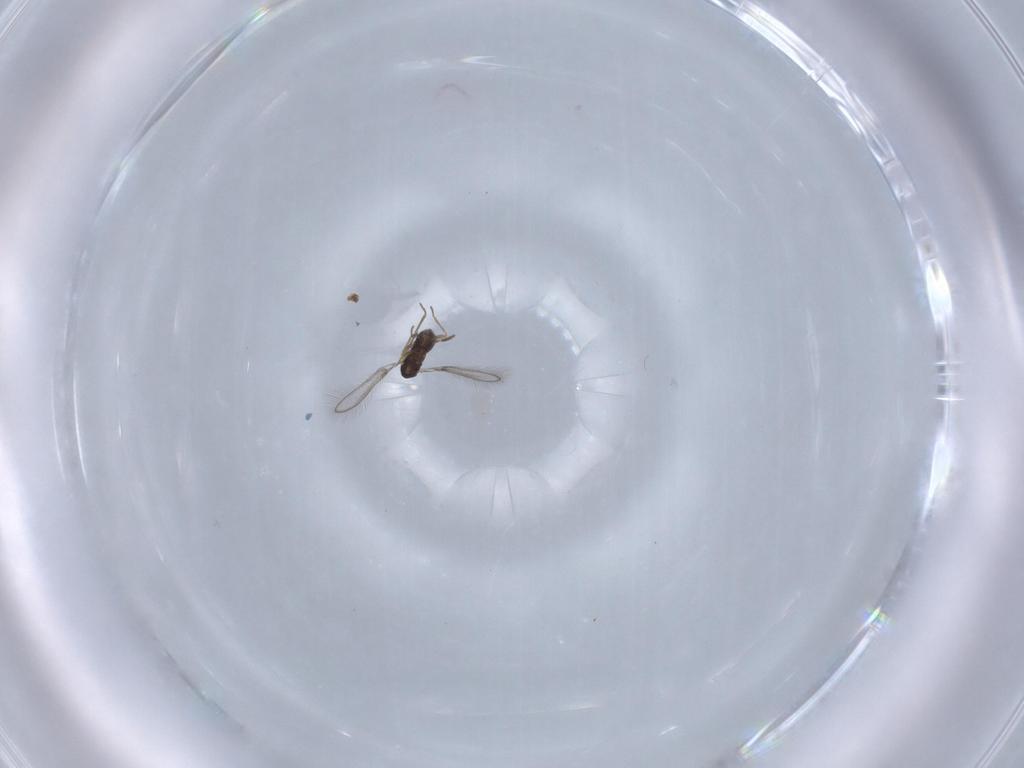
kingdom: Animalia
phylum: Arthropoda
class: Insecta
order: Hymenoptera
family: Mymaridae
